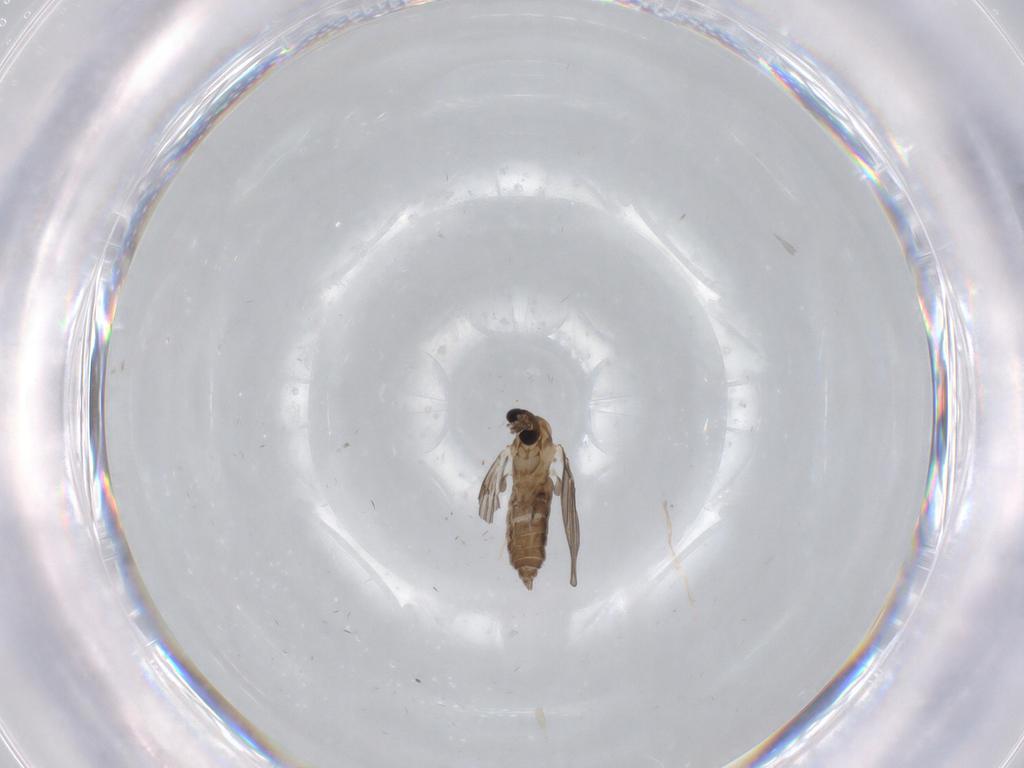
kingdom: Animalia
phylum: Arthropoda
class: Insecta
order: Diptera
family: Chironomidae
